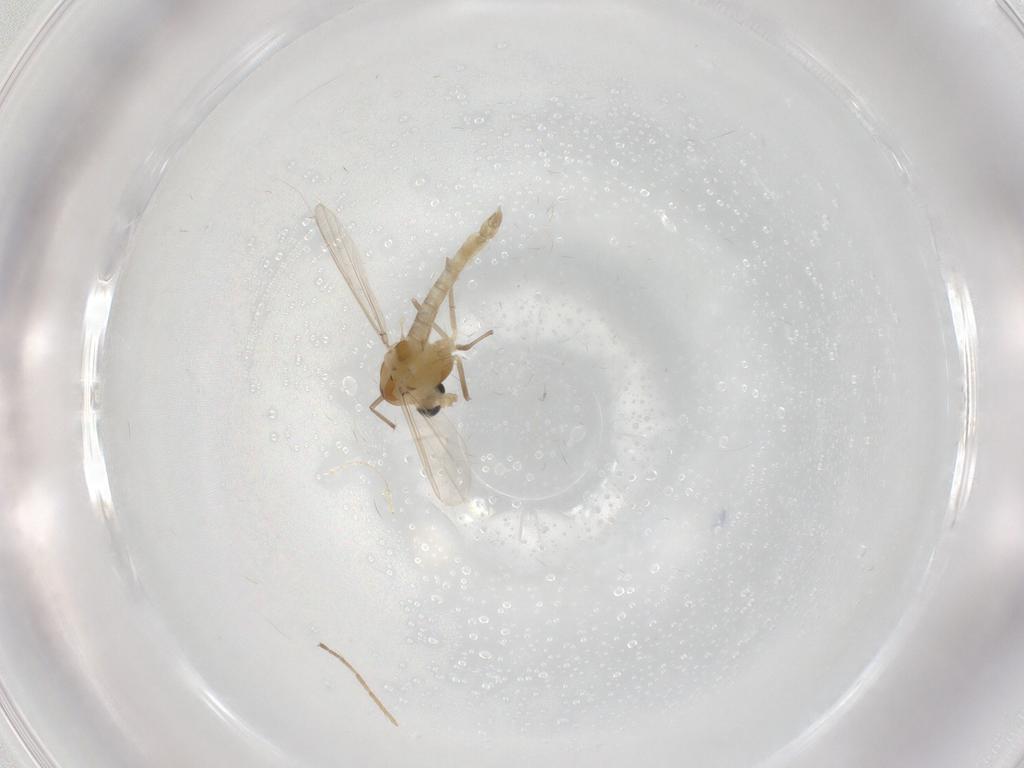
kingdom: Animalia
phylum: Arthropoda
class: Insecta
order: Diptera
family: Chironomidae
